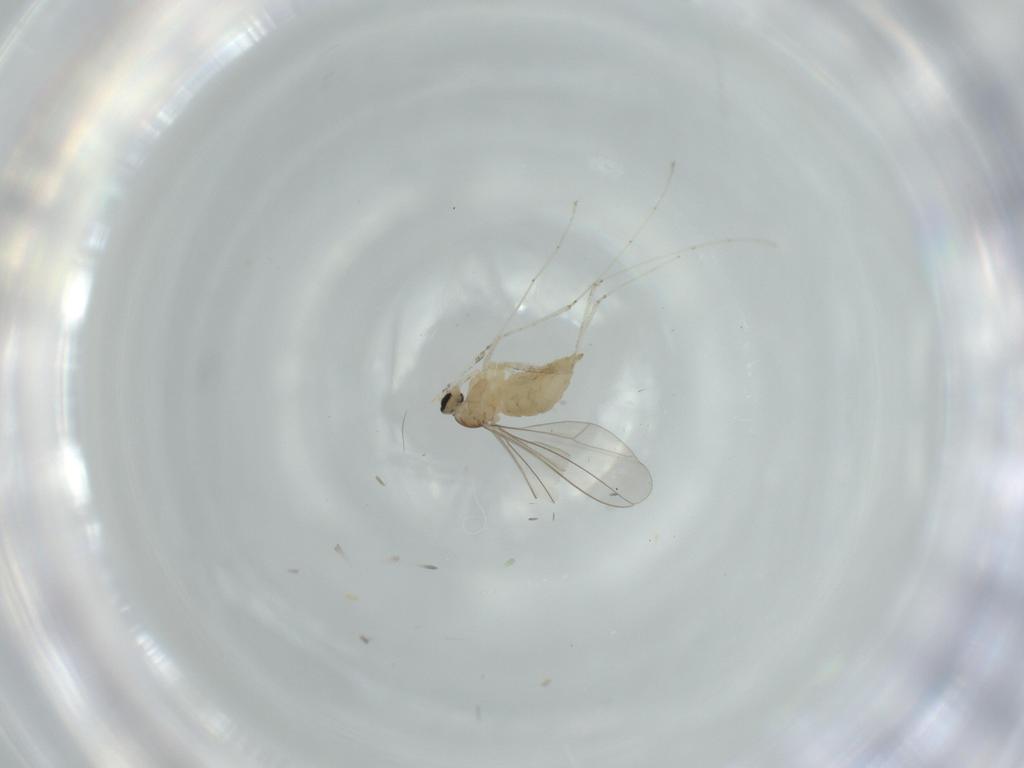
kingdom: Animalia
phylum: Arthropoda
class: Insecta
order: Diptera
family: Cecidomyiidae
